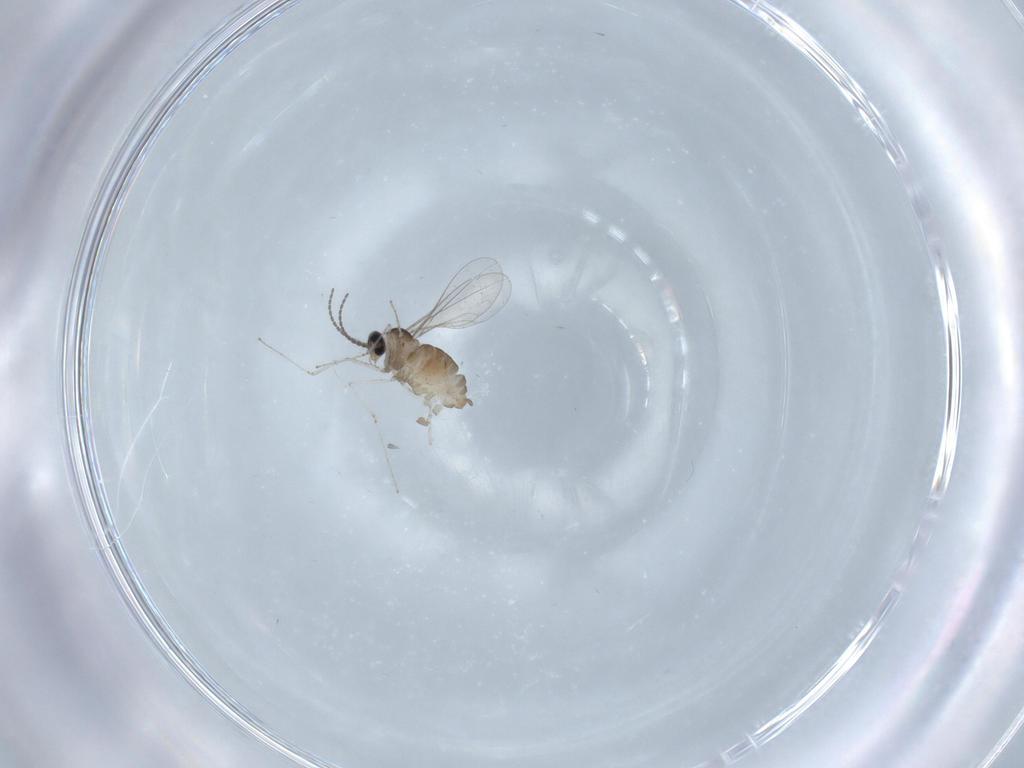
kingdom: Animalia
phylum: Arthropoda
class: Insecta
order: Diptera
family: Cecidomyiidae
